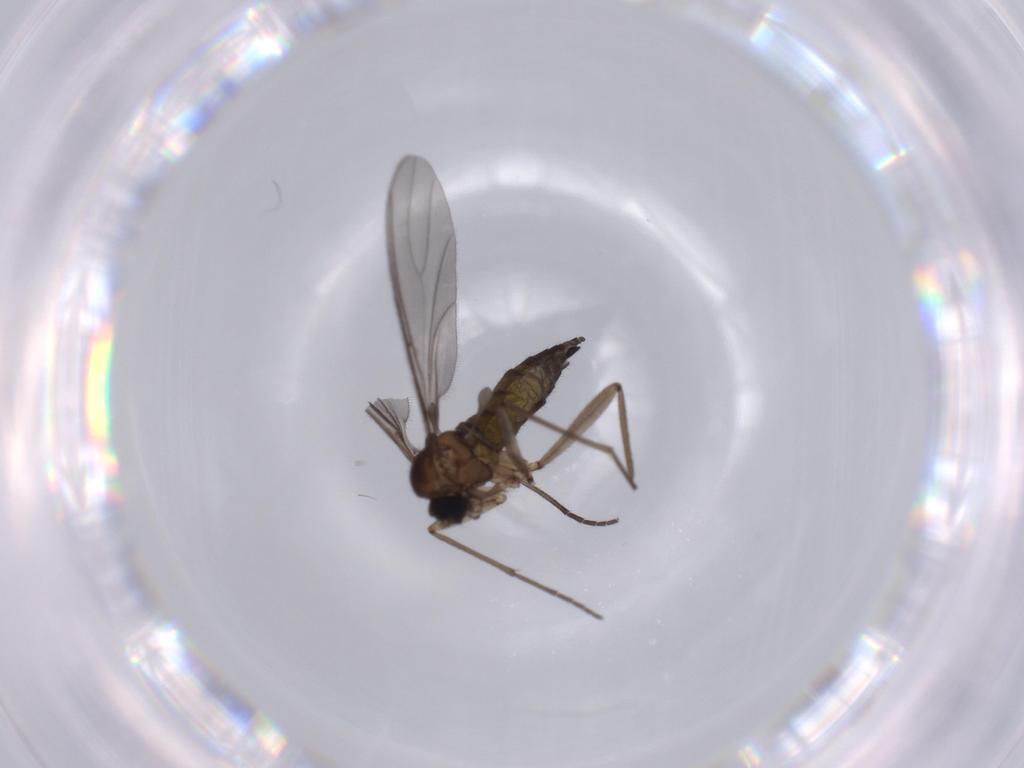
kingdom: Animalia
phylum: Arthropoda
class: Insecta
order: Diptera
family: Sciaridae
